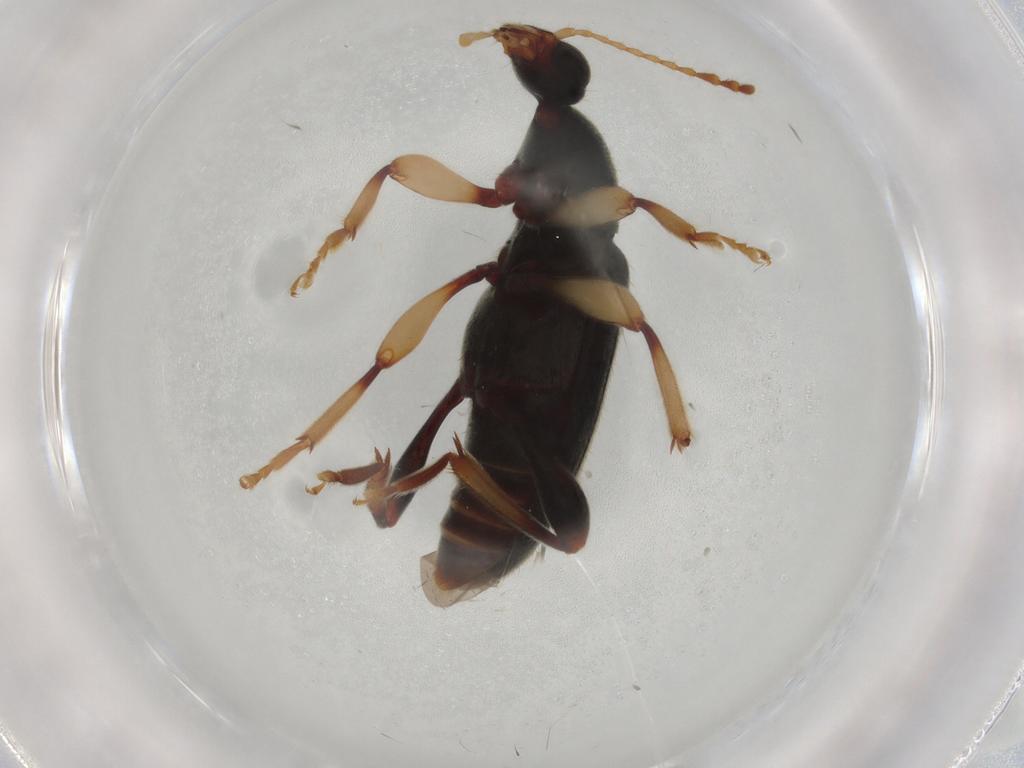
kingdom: Animalia
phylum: Arthropoda
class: Insecta
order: Coleoptera
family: Anthicidae
